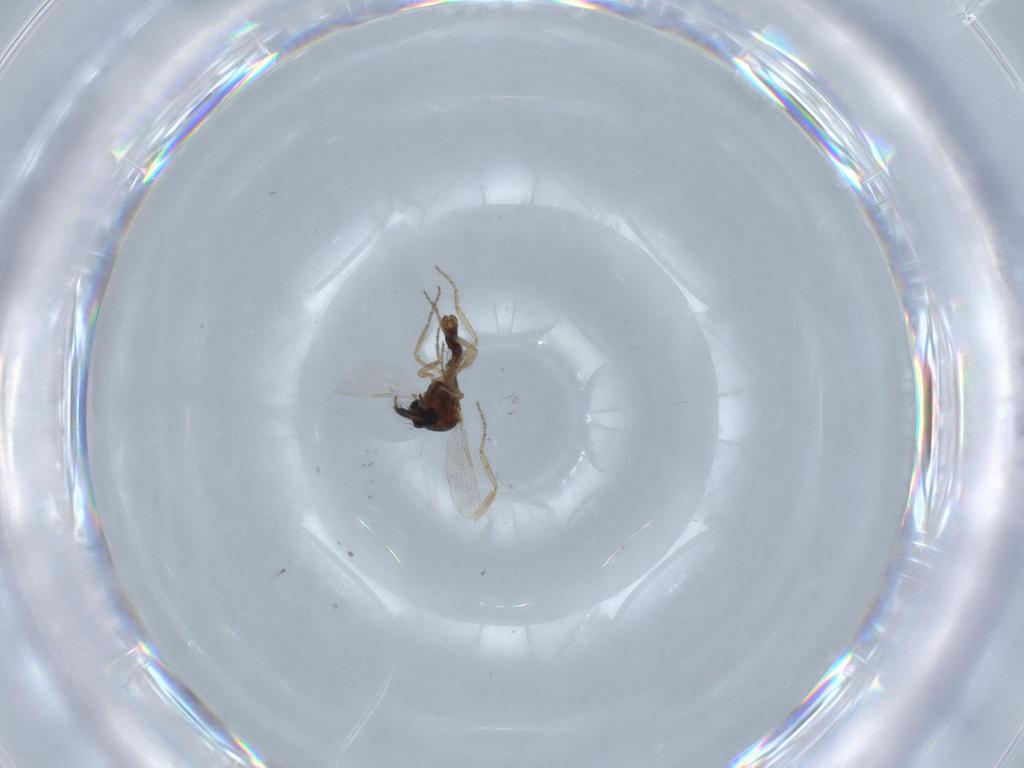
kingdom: Animalia
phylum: Arthropoda
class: Insecta
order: Diptera
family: Ceratopogonidae
